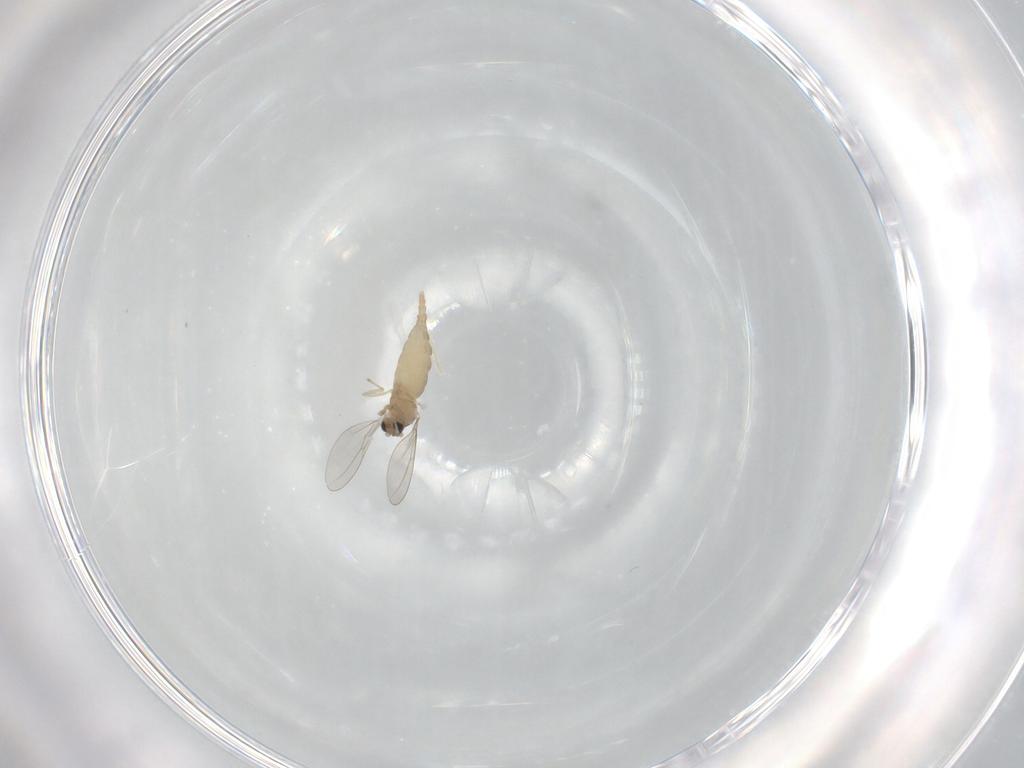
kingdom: Animalia
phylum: Arthropoda
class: Insecta
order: Diptera
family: Cecidomyiidae
